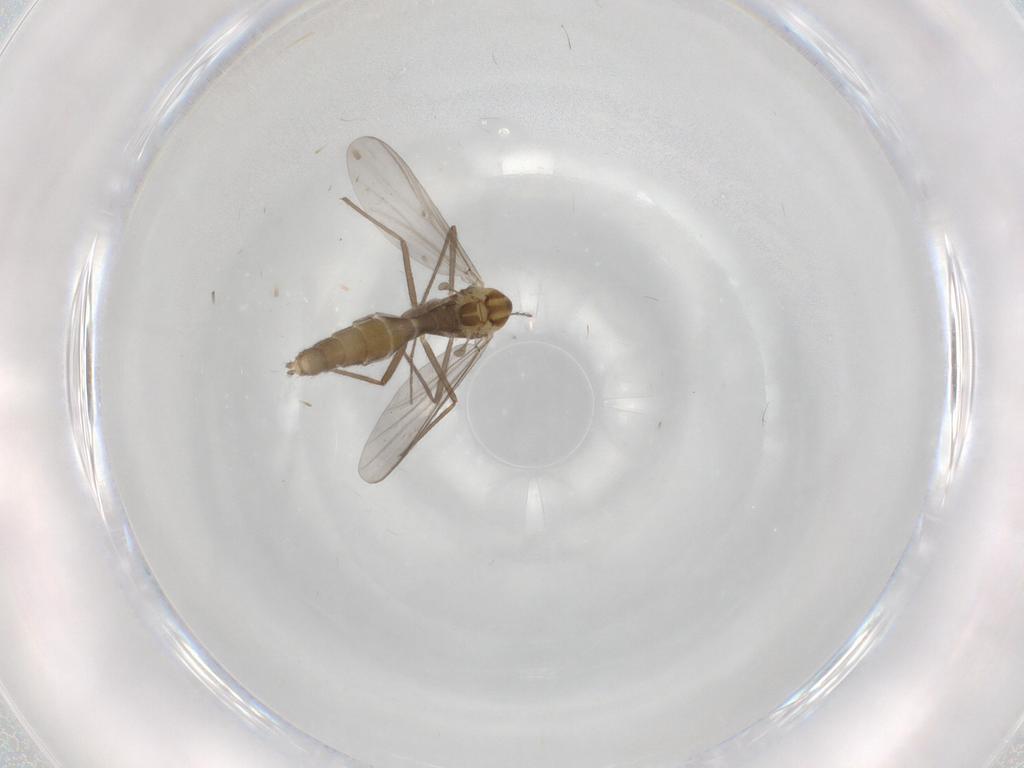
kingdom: Animalia
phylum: Arthropoda
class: Insecta
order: Diptera
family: Chironomidae
